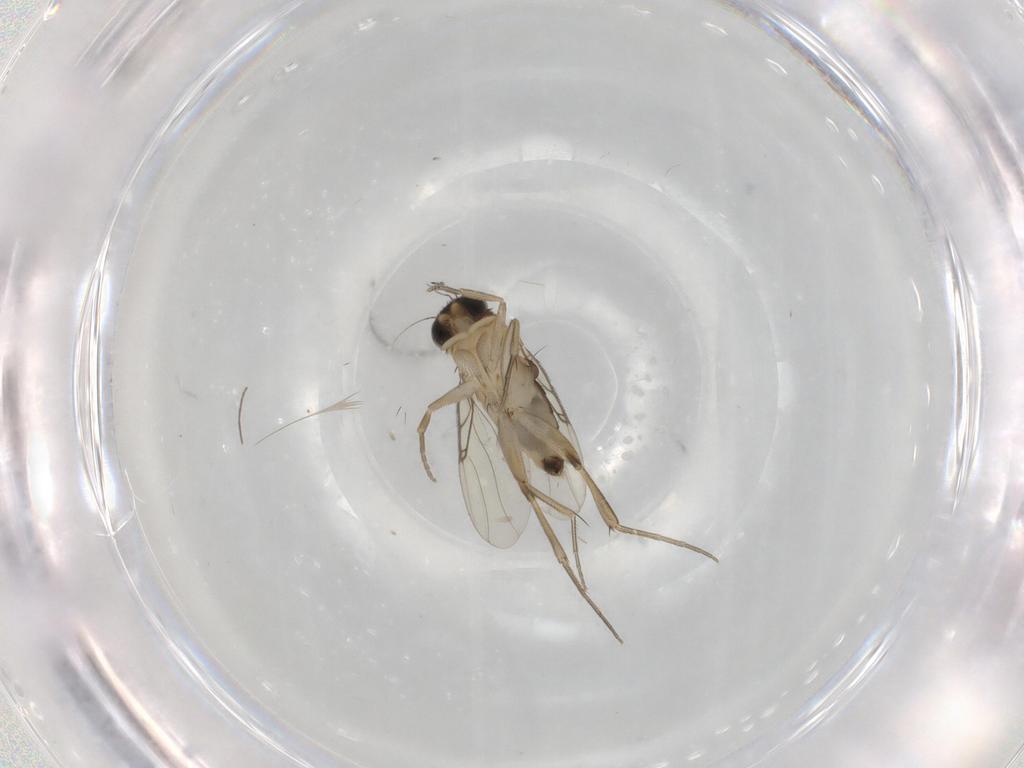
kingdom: Animalia
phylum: Arthropoda
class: Insecta
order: Diptera
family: Phoridae
